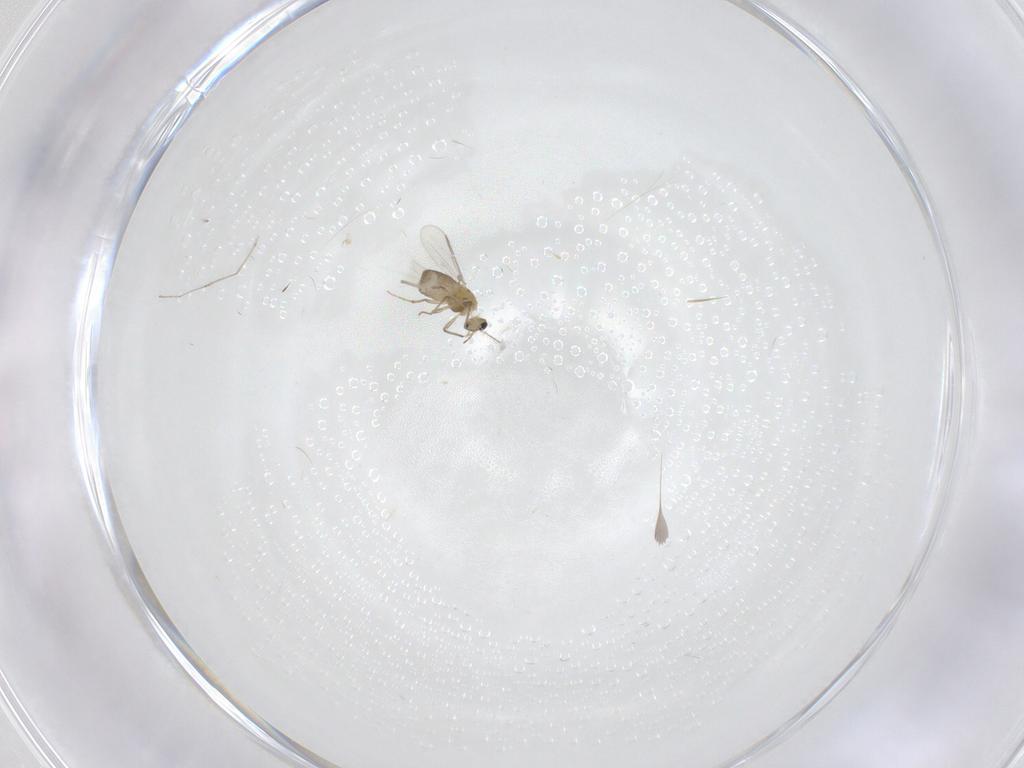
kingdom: Animalia
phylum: Arthropoda
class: Insecta
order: Diptera
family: Chironomidae
